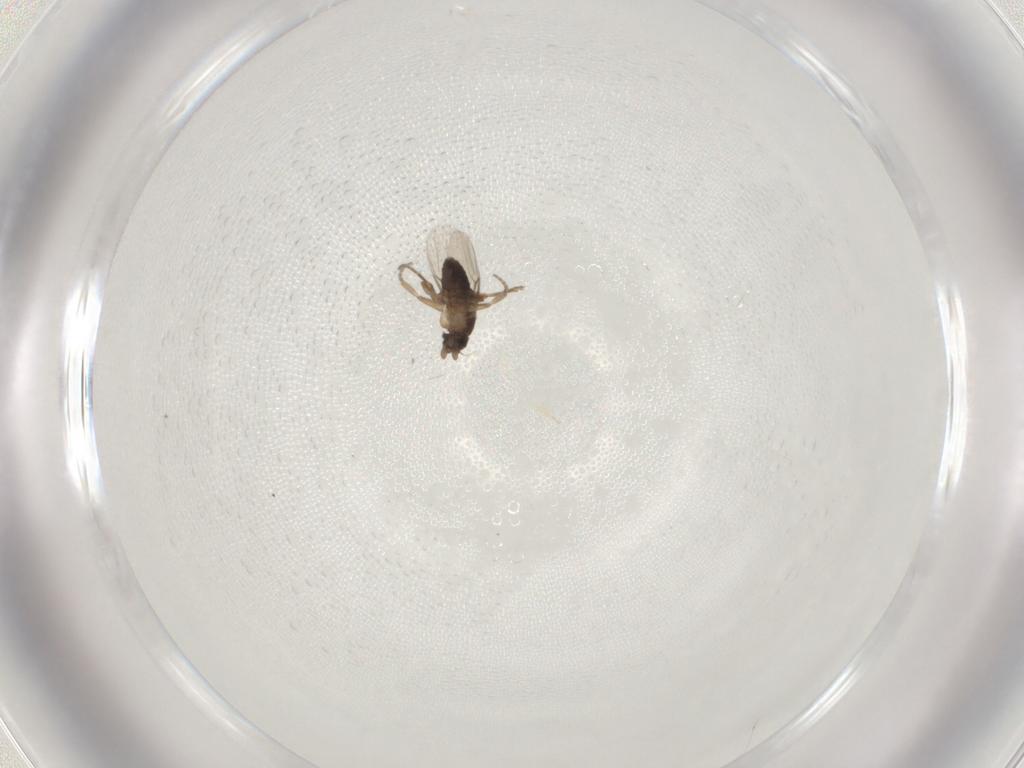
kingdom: Animalia
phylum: Arthropoda
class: Insecta
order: Diptera
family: Phoridae
